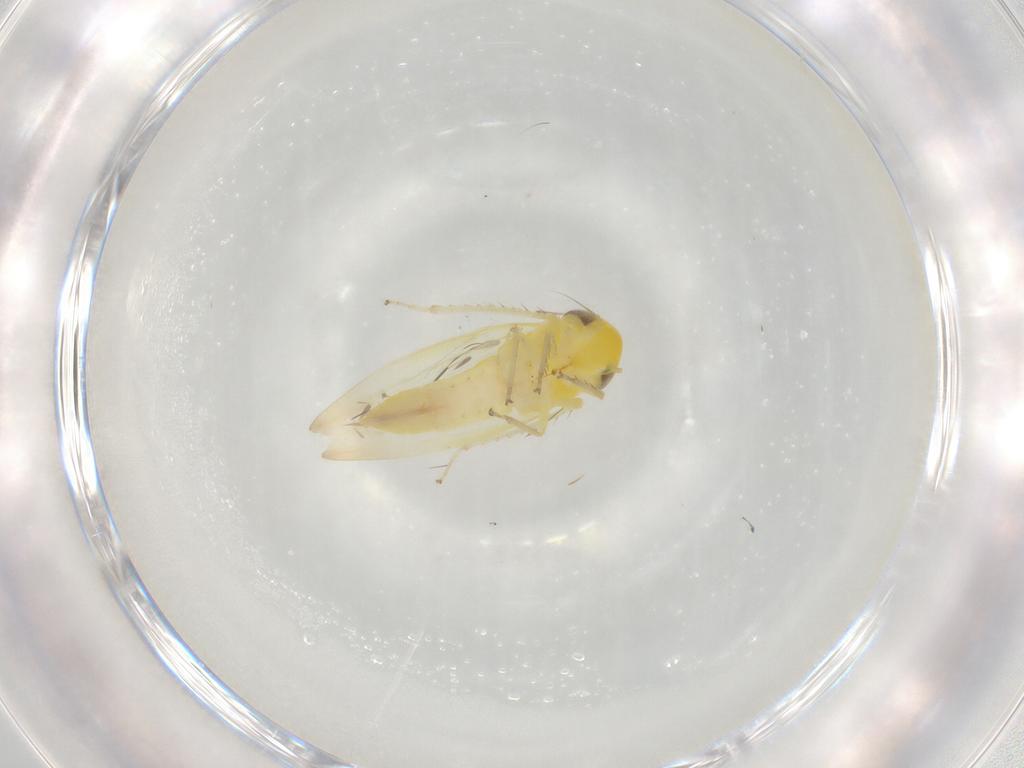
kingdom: Animalia
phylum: Arthropoda
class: Insecta
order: Hemiptera
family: Cicadellidae
